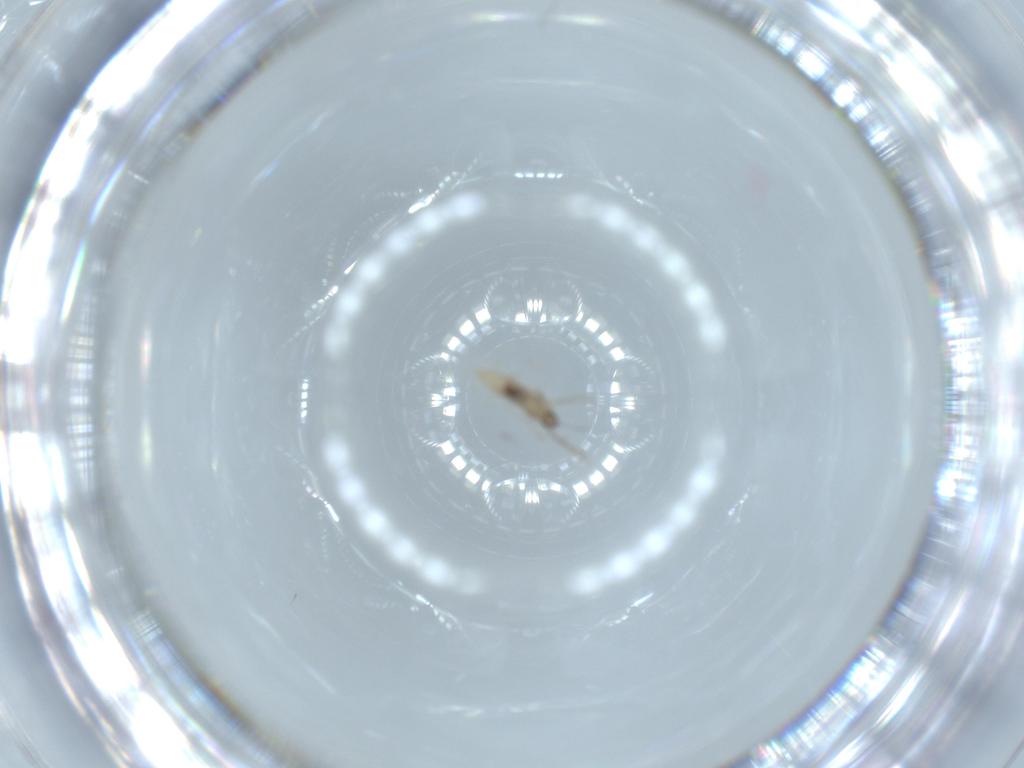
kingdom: Animalia
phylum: Arthropoda
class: Insecta
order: Diptera
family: Cecidomyiidae
